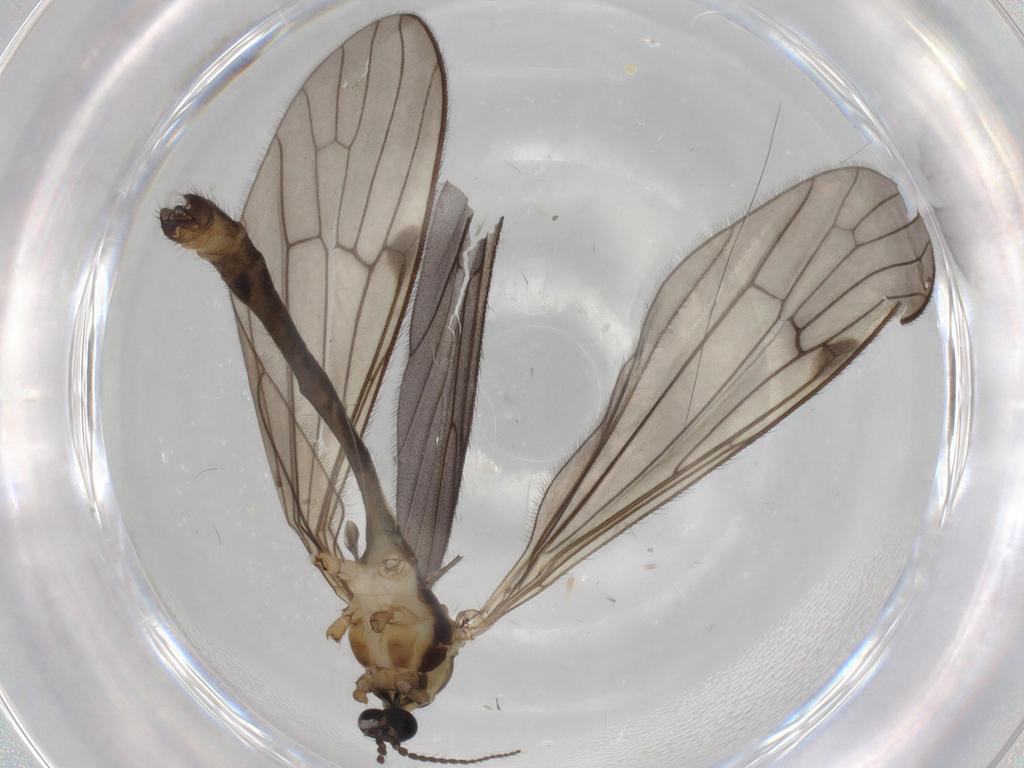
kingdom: Animalia
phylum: Arthropoda
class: Insecta
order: Diptera
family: Limoniidae
